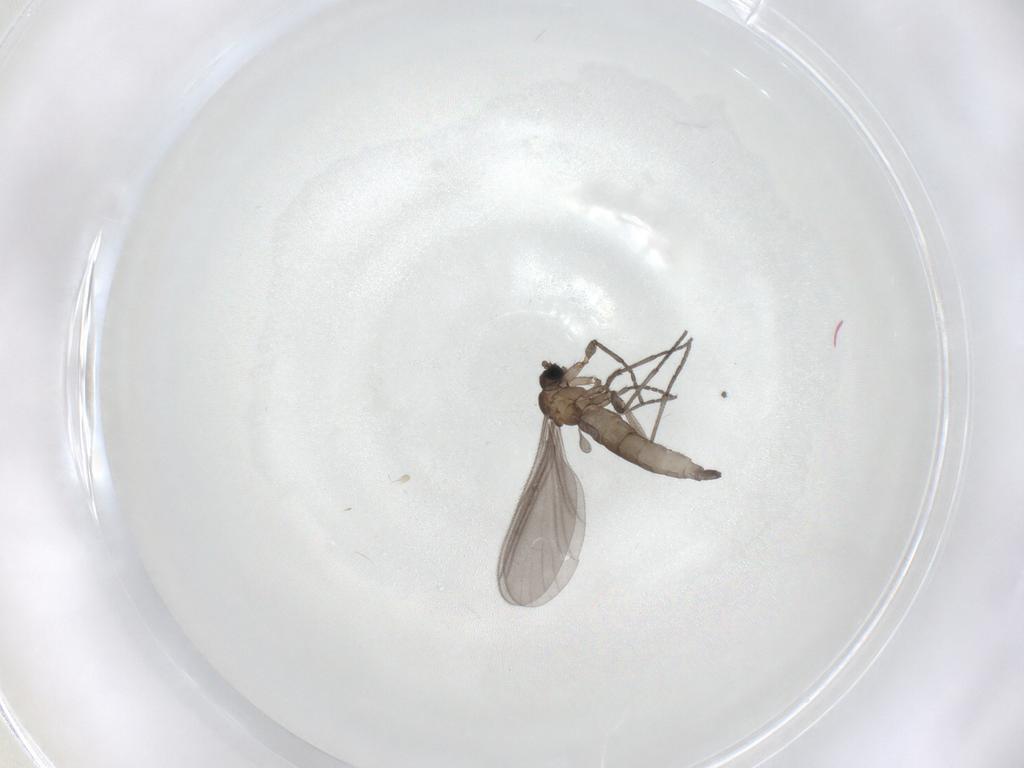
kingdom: Animalia
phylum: Arthropoda
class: Insecta
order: Diptera
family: Sciaridae
